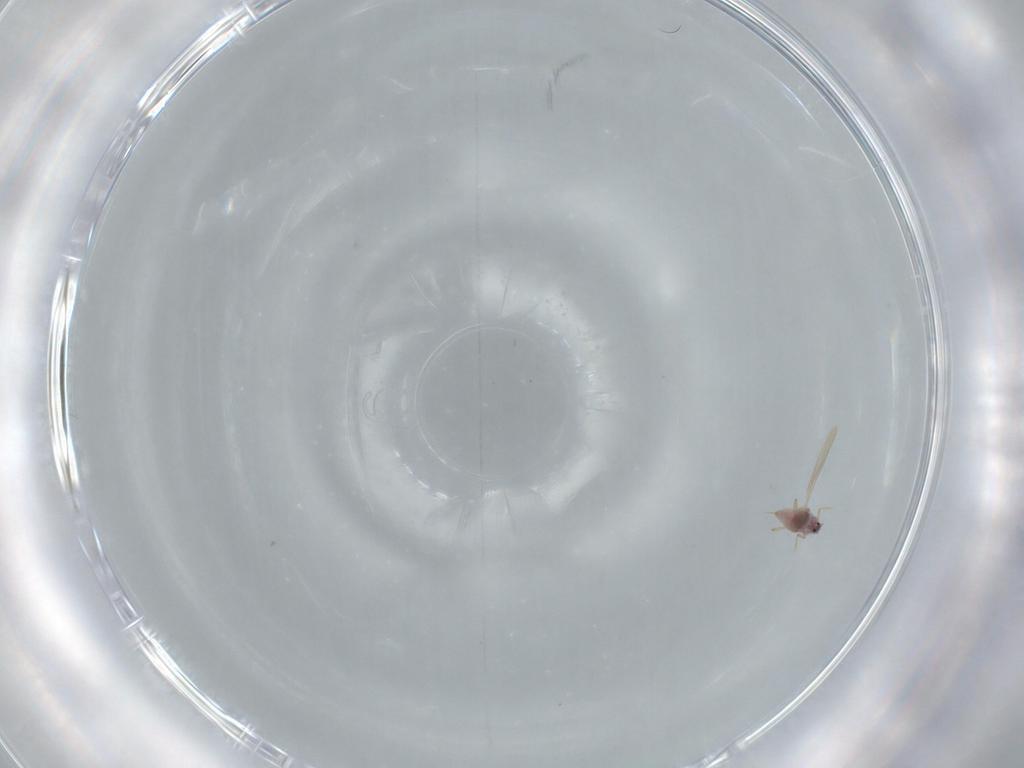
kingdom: Animalia
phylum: Arthropoda
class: Insecta
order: Hemiptera
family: Diaspididae
